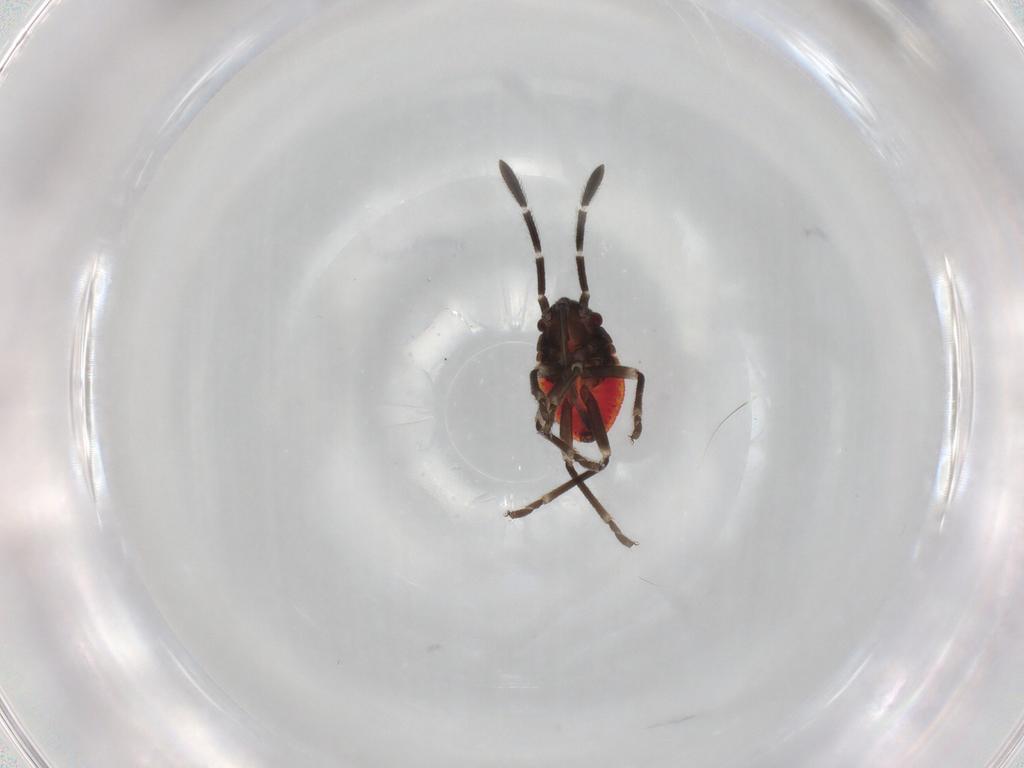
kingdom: Animalia
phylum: Arthropoda
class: Insecta
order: Hemiptera
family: Lygaeidae
